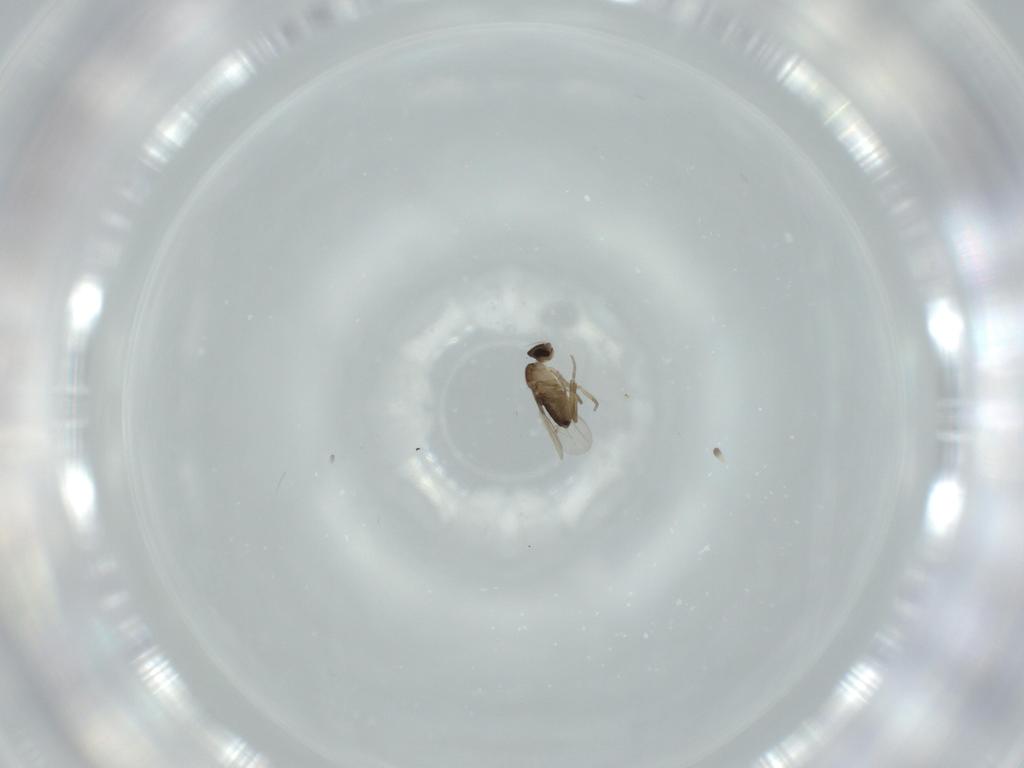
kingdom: Animalia
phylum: Arthropoda
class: Insecta
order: Diptera
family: Phoridae
